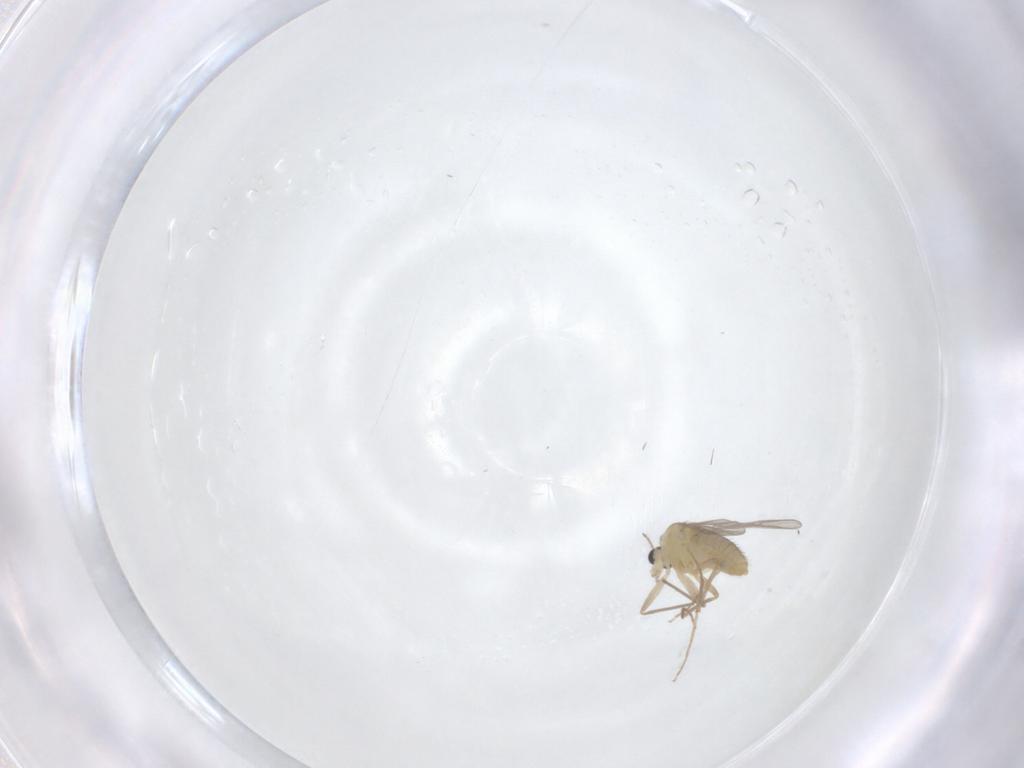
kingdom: Animalia
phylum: Arthropoda
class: Insecta
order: Diptera
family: Chironomidae
